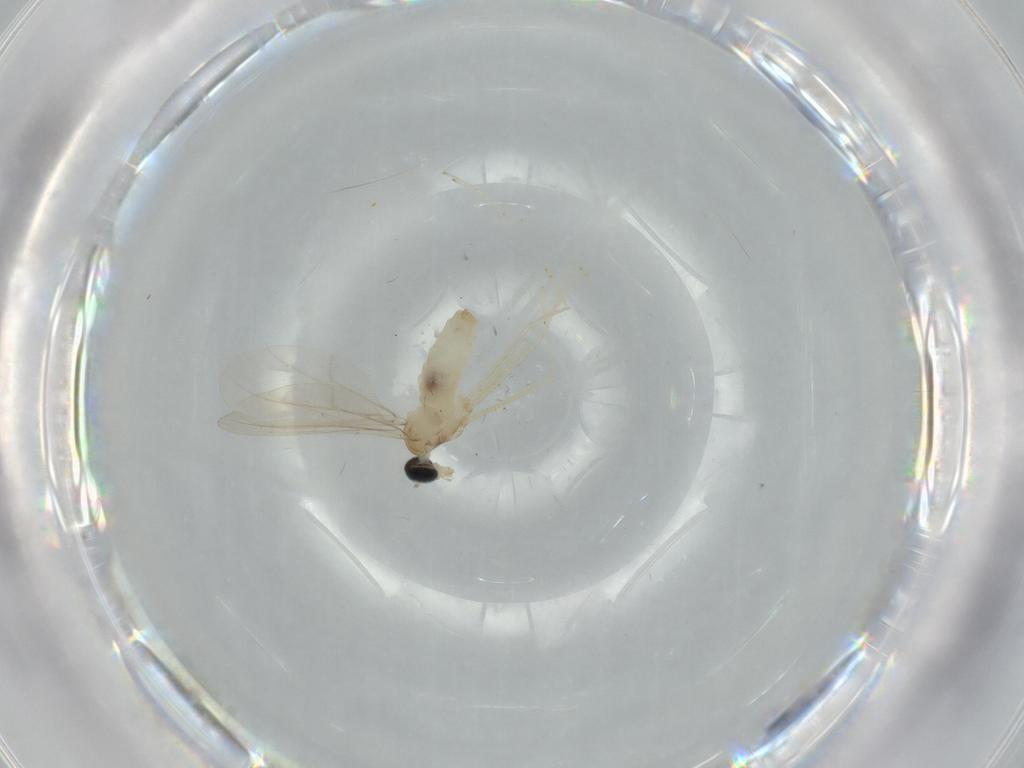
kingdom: Animalia
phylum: Arthropoda
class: Insecta
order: Diptera
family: Cecidomyiidae
